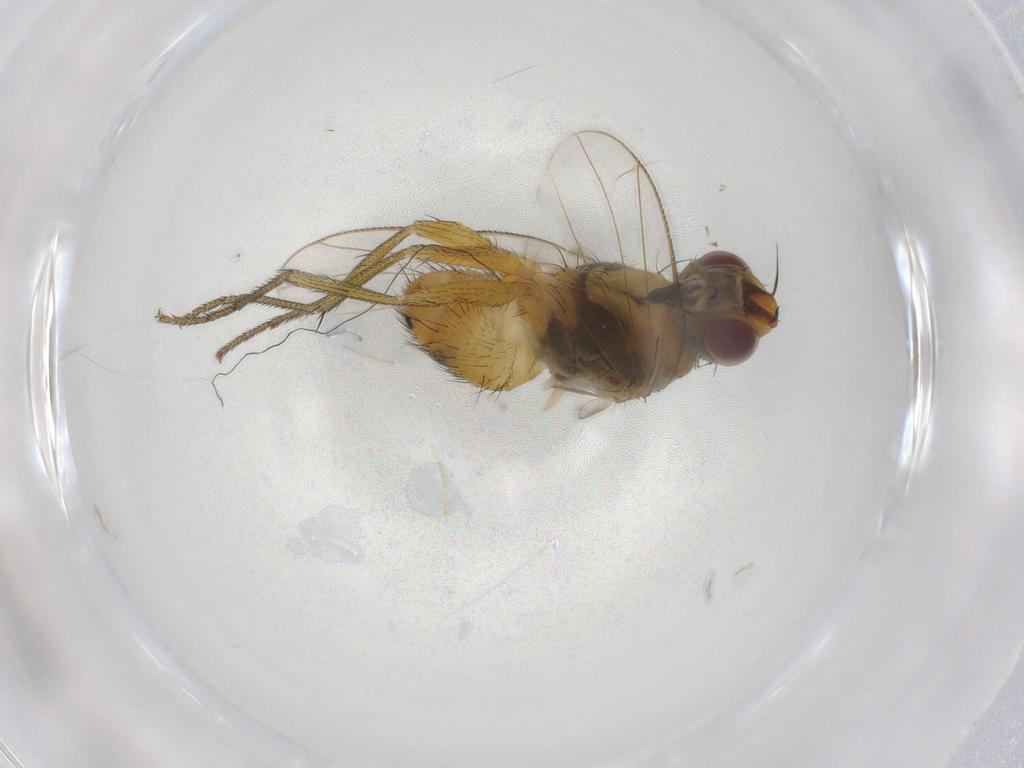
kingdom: Animalia
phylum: Arthropoda
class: Insecta
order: Diptera
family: Muscidae
